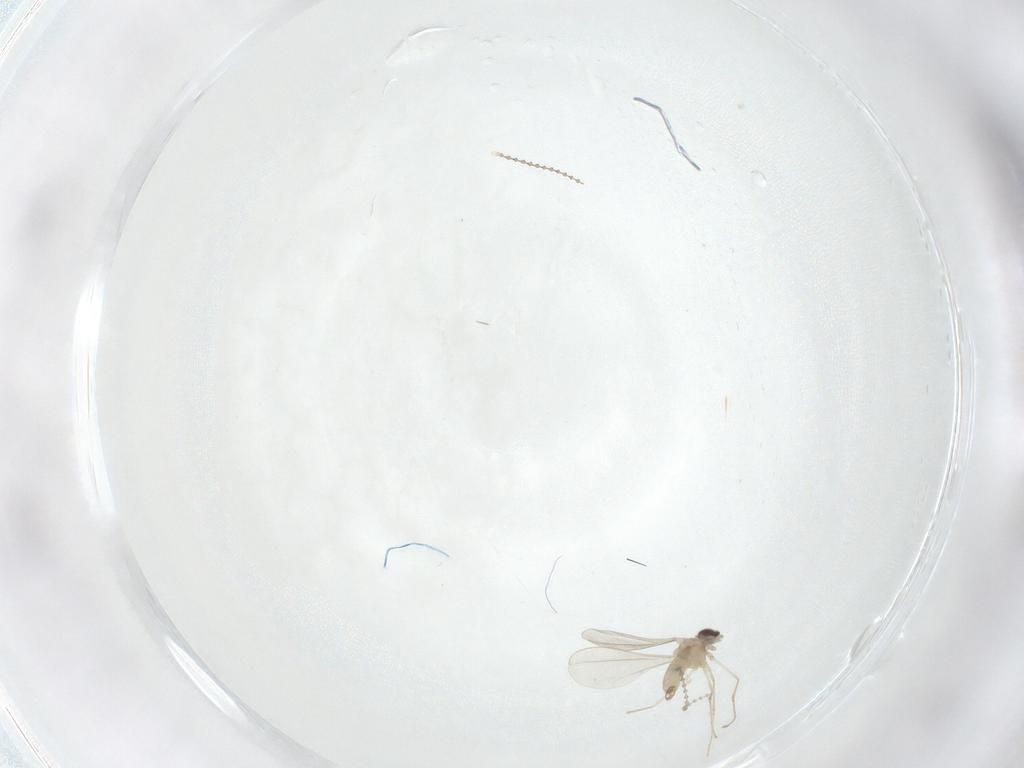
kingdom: Animalia
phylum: Arthropoda
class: Insecta
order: Diptera
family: Cecidomyiidae
